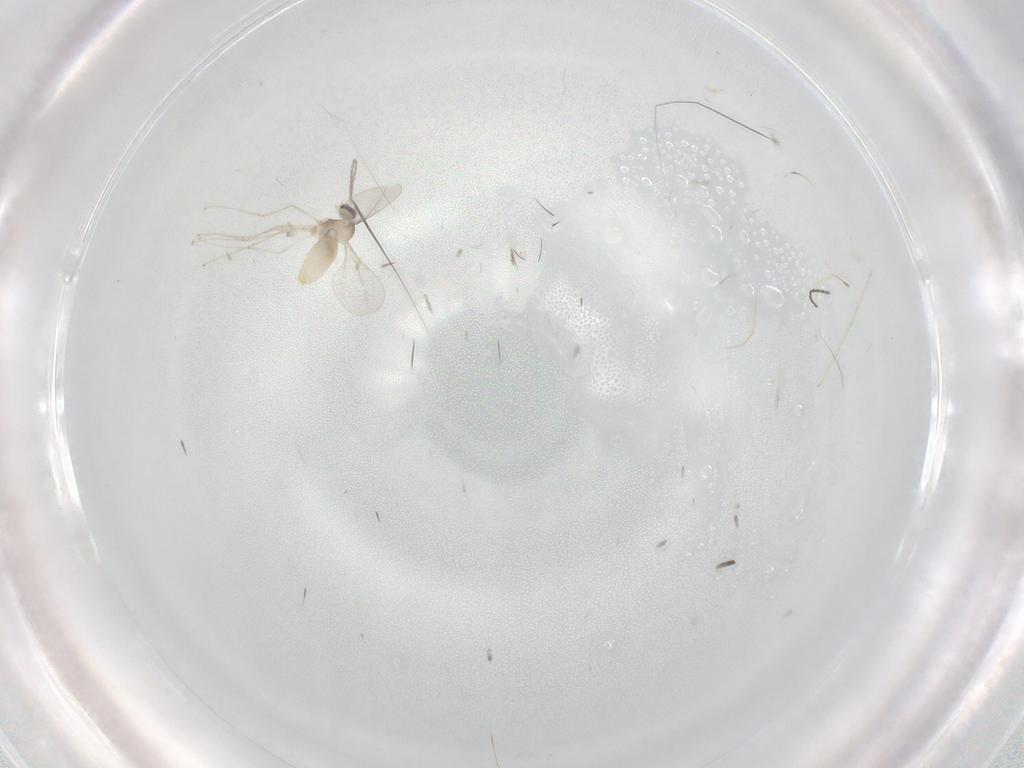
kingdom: Animalia
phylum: Arthropoda
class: Insecta
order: Diptera
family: Cecidomyiidae
